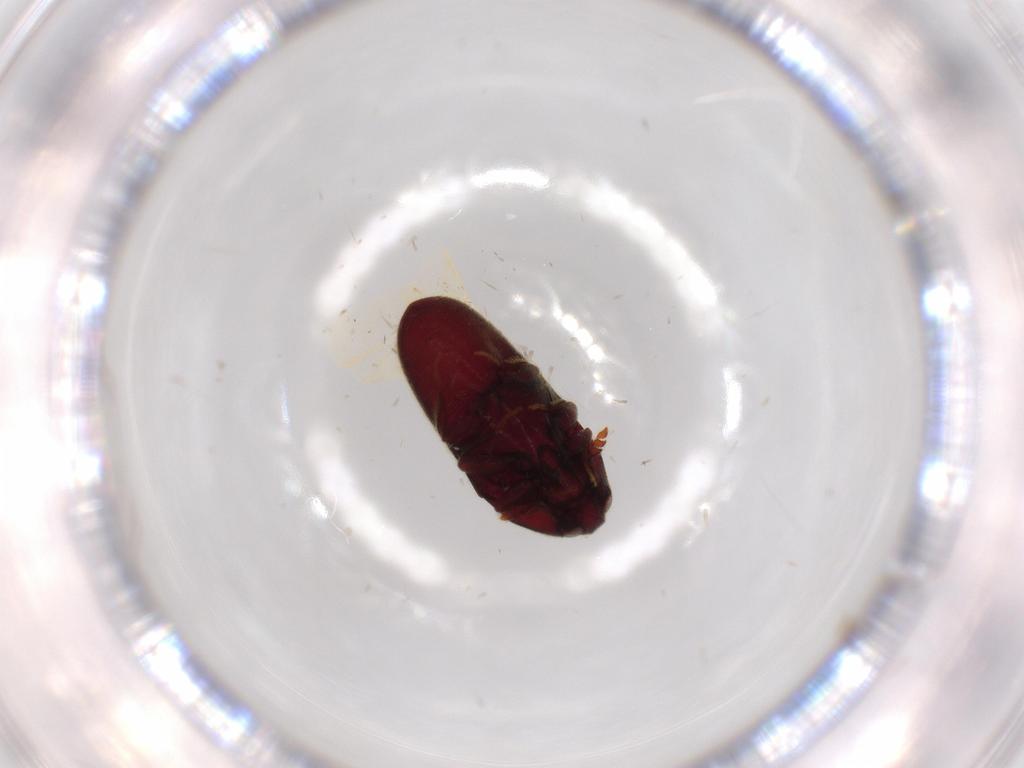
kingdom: Animalia
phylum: Arthropoda
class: Insecta
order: Coleoptera
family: Throscidae
